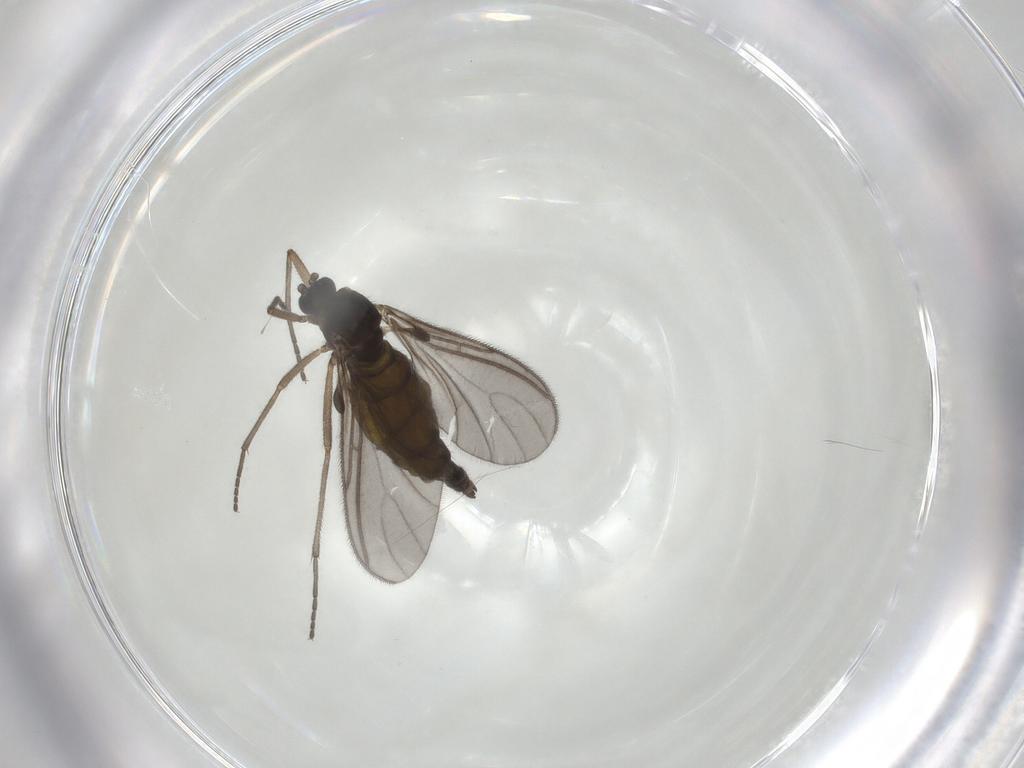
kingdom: Animalia
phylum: Arthropoda
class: Insecta
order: Diptera
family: Sciaridae
